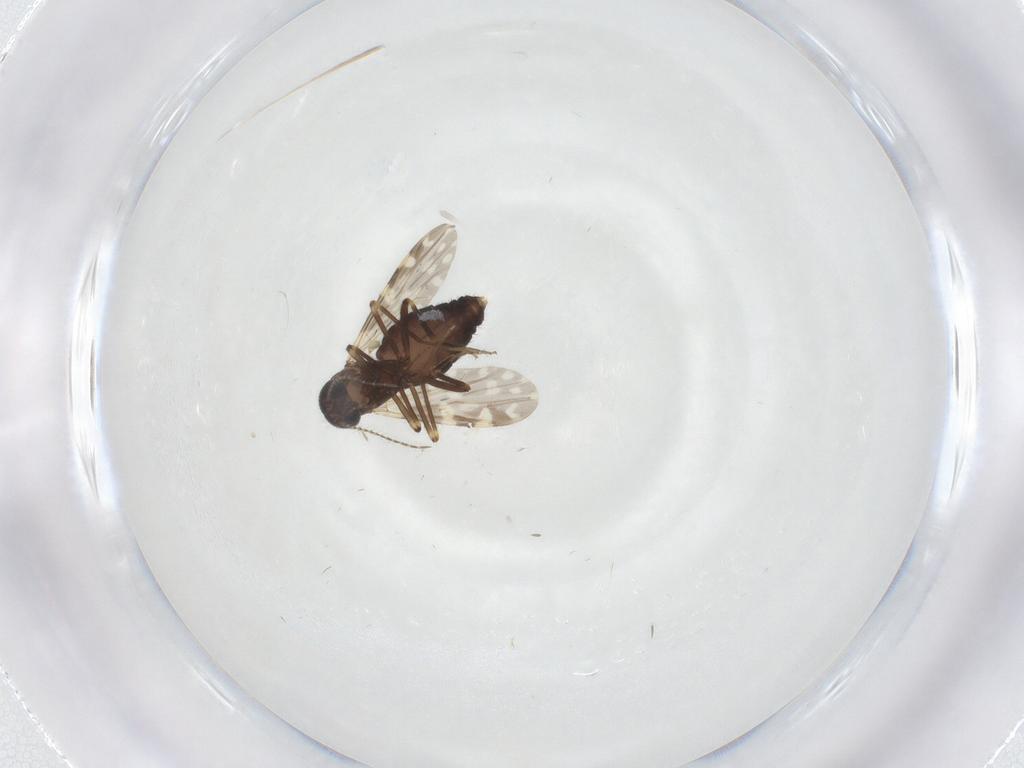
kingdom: Animalia
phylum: Arthropoda
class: Insecta
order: Diptera
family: Ceratopogonidae
